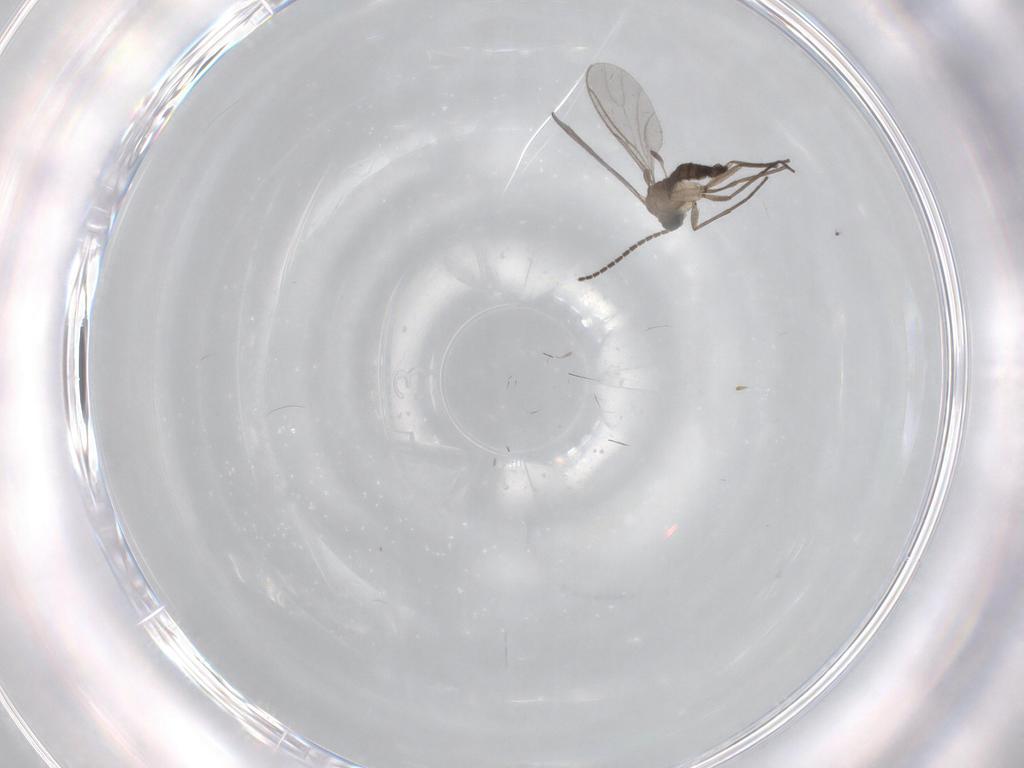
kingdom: Animalia
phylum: Arthropoda
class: Insecta
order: Diptera
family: Sciaridae
